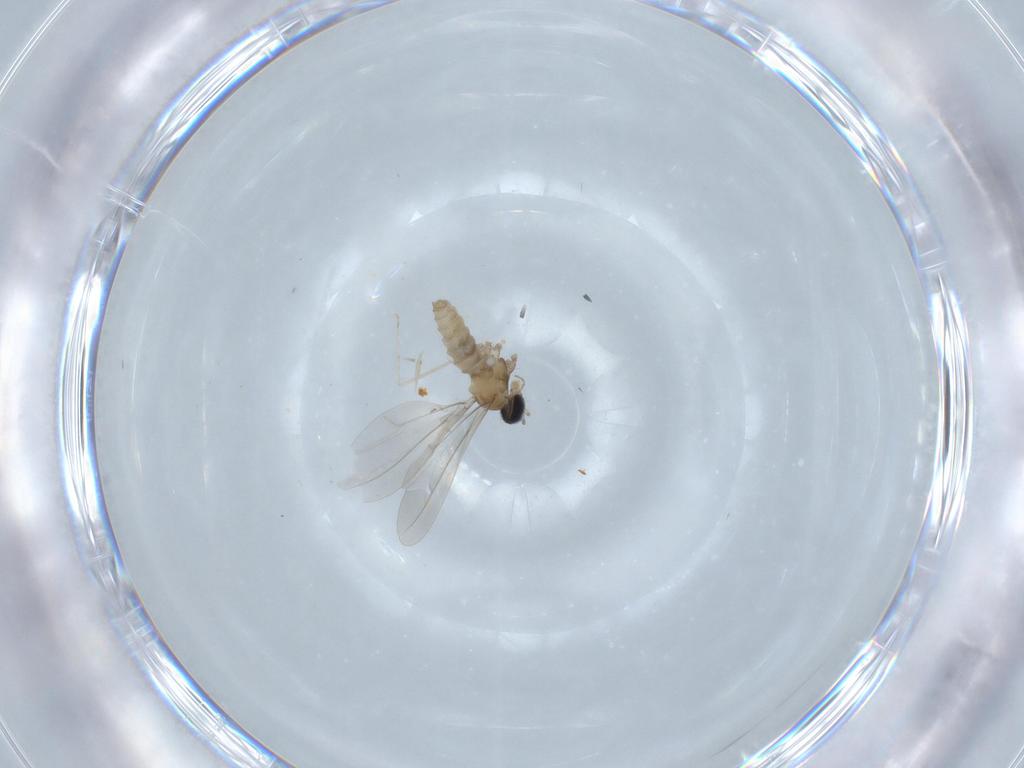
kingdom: Animalia
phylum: Arthropoda
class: Insecta
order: Diptera
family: Cecidomyiidae
